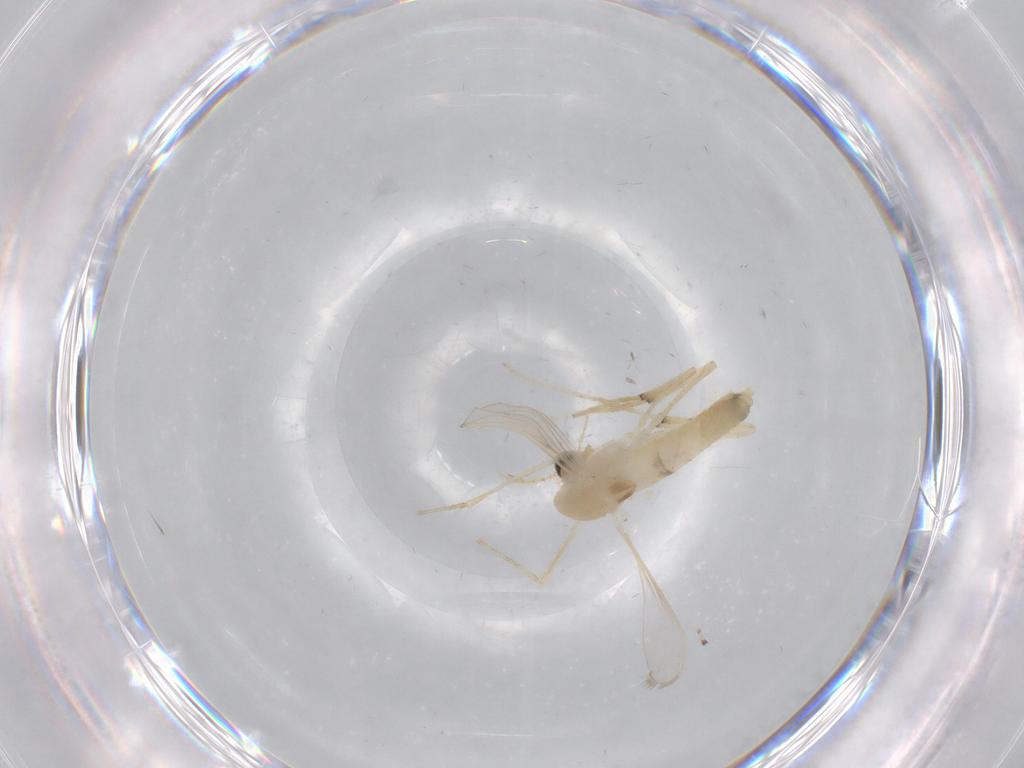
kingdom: Animalia
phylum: Arthropoda
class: Insecta
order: Diptera
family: Chironomidae
